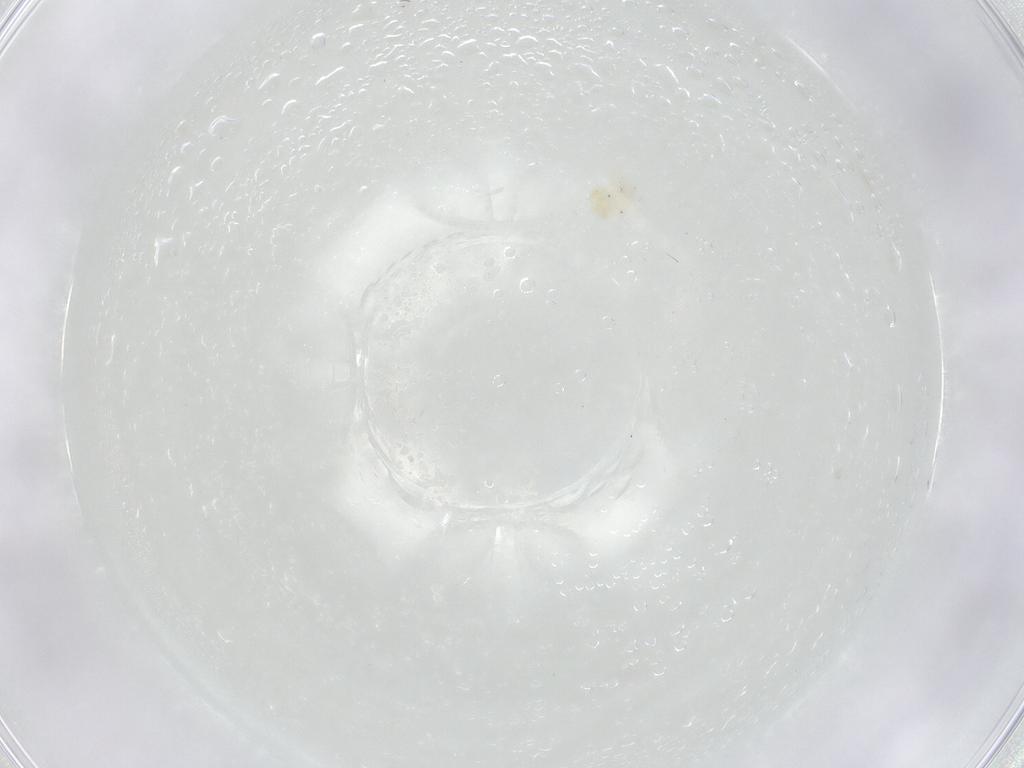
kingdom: Animalia
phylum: Arthropoda
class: Arachnida
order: Trombidiformes
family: Anystidae
